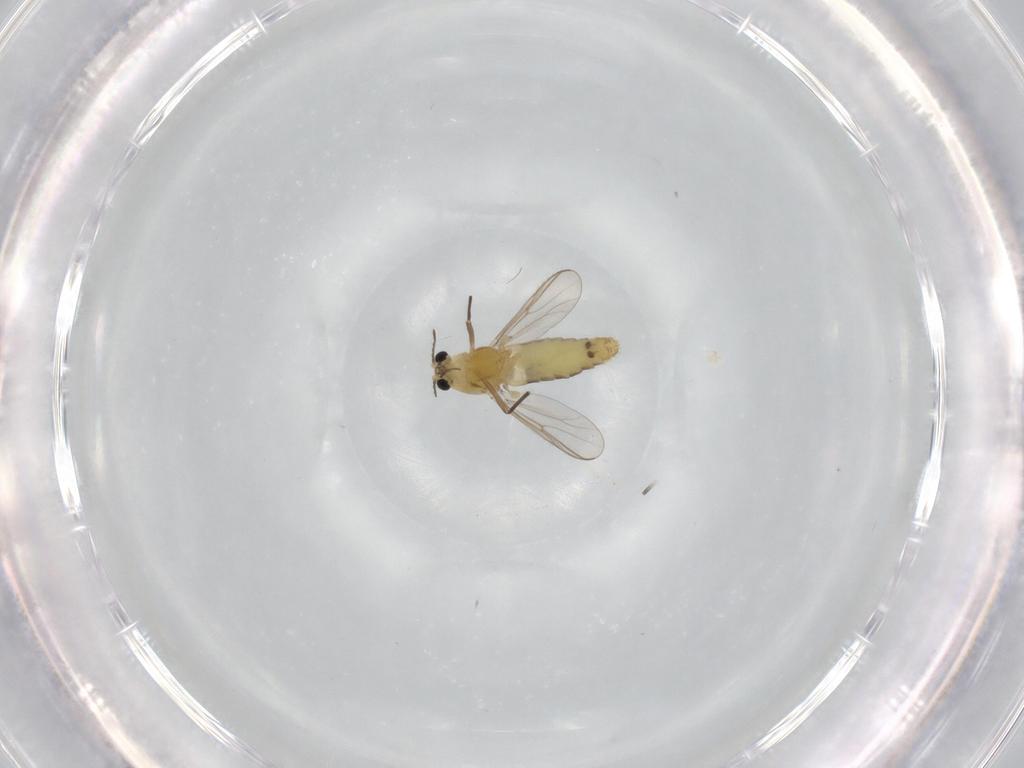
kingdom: Animalia
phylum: Arthropoda
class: Insecta
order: Diptera
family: Chironomidae
